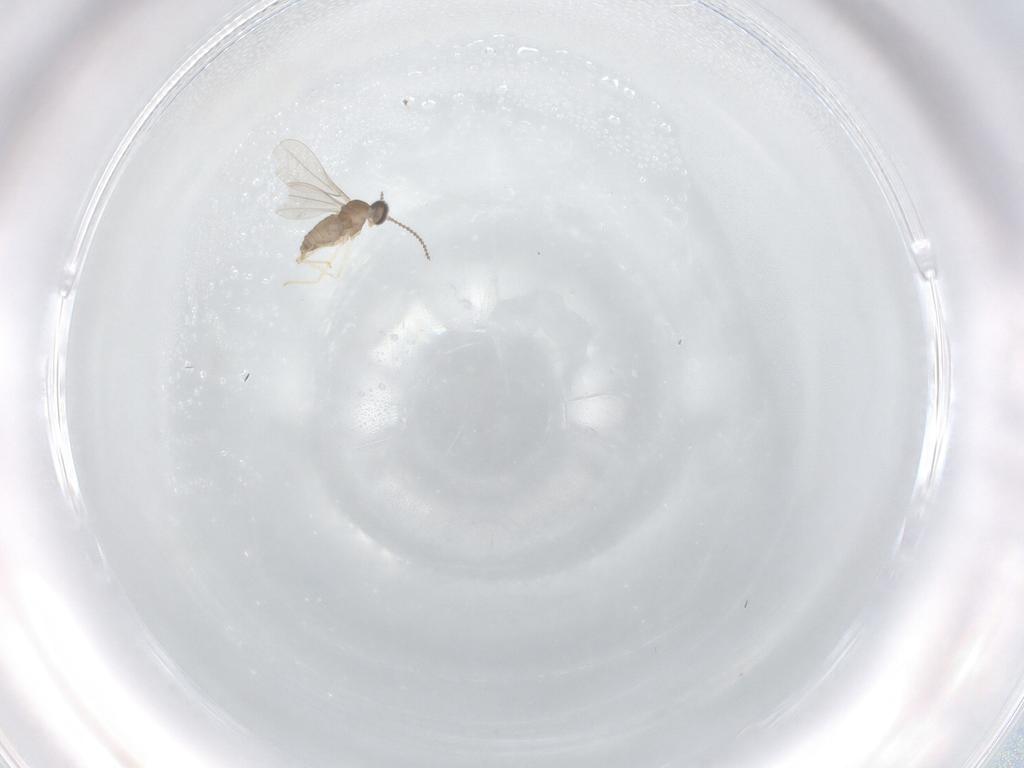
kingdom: Animalia
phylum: Arthropoda
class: Insecta
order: Diptera
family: Cecidomyiidae
